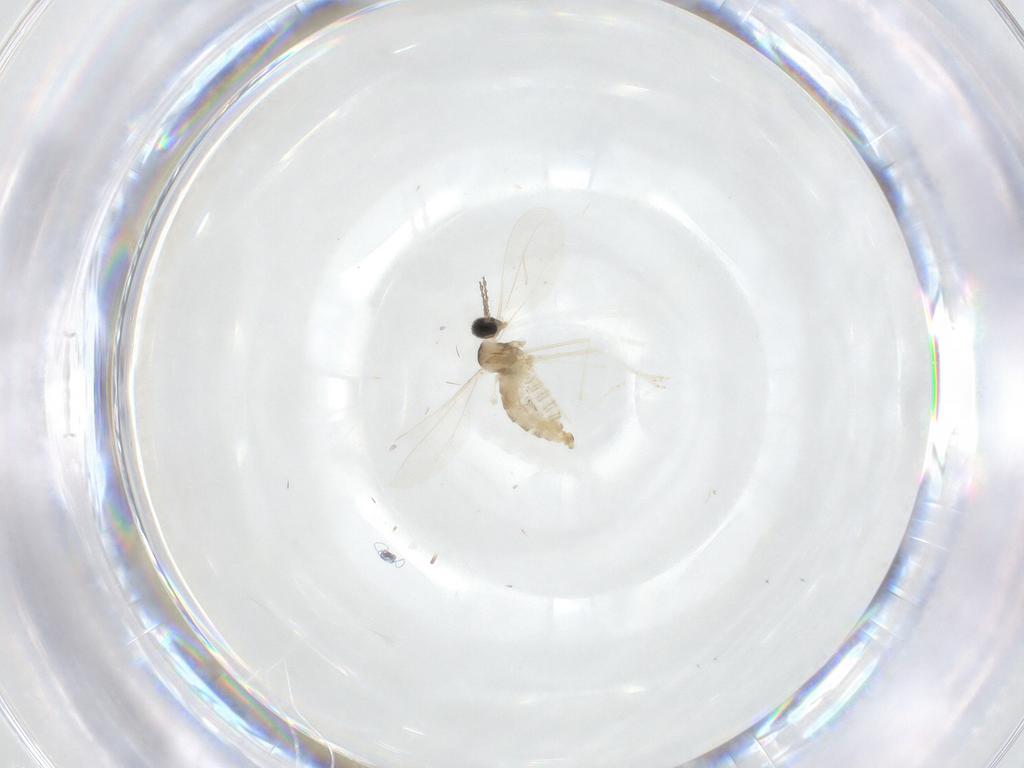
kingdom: Animalia
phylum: Arthropoda
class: Insecta
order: Diptera
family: Cecidomyiidae
